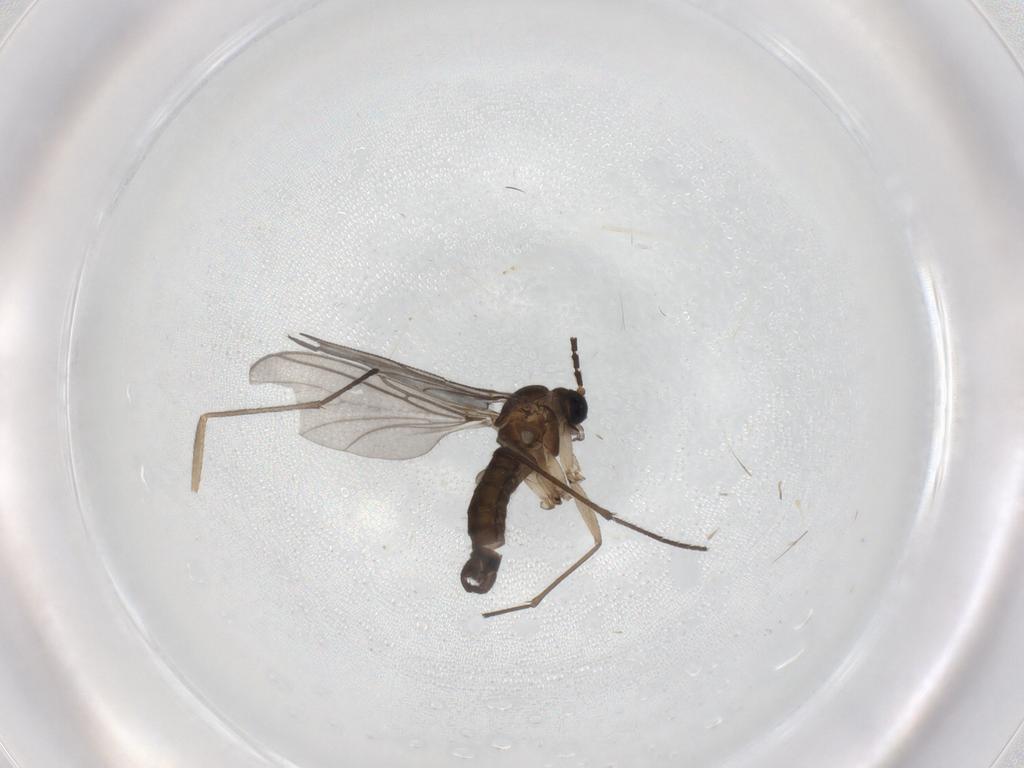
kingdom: Animalia
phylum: Arthropoda
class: Insecta
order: Diptera
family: Sciaridae
